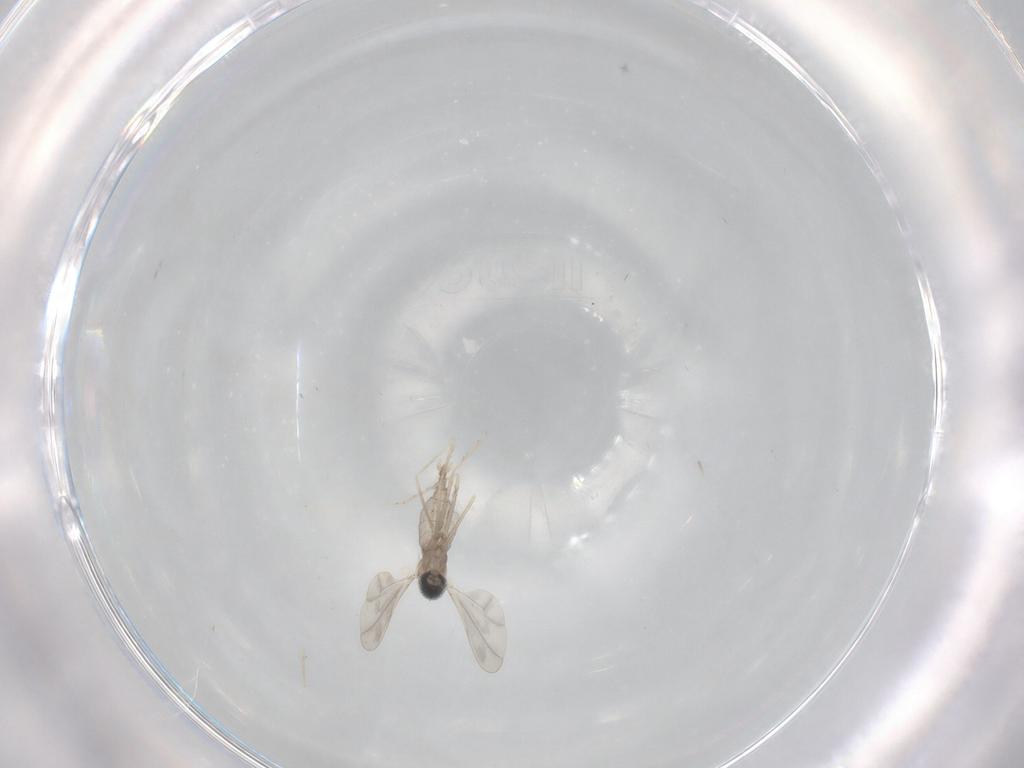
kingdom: Animalia
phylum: Arthropoda
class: Insecta
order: Diptera
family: Cecidomyiidae
